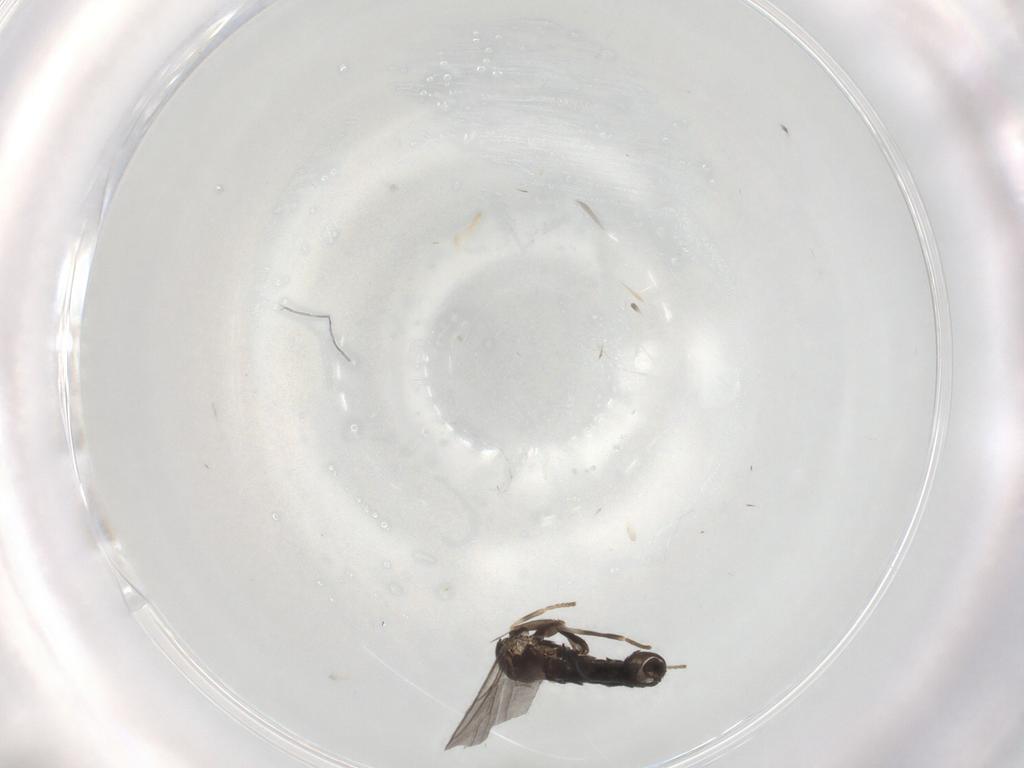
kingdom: Animalia
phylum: Arthropoda
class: Insecta
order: Diptera
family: Scatopsidae
